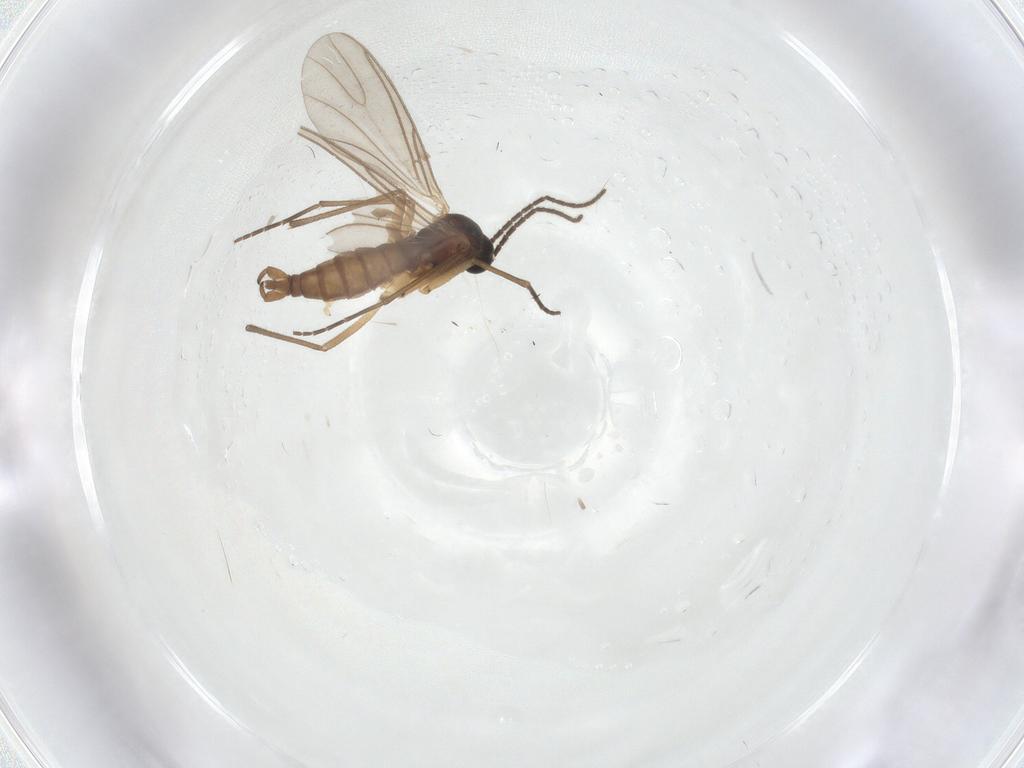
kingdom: Animalia
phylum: Arthropoda
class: Insecta
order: Diptera
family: Sciaridae
